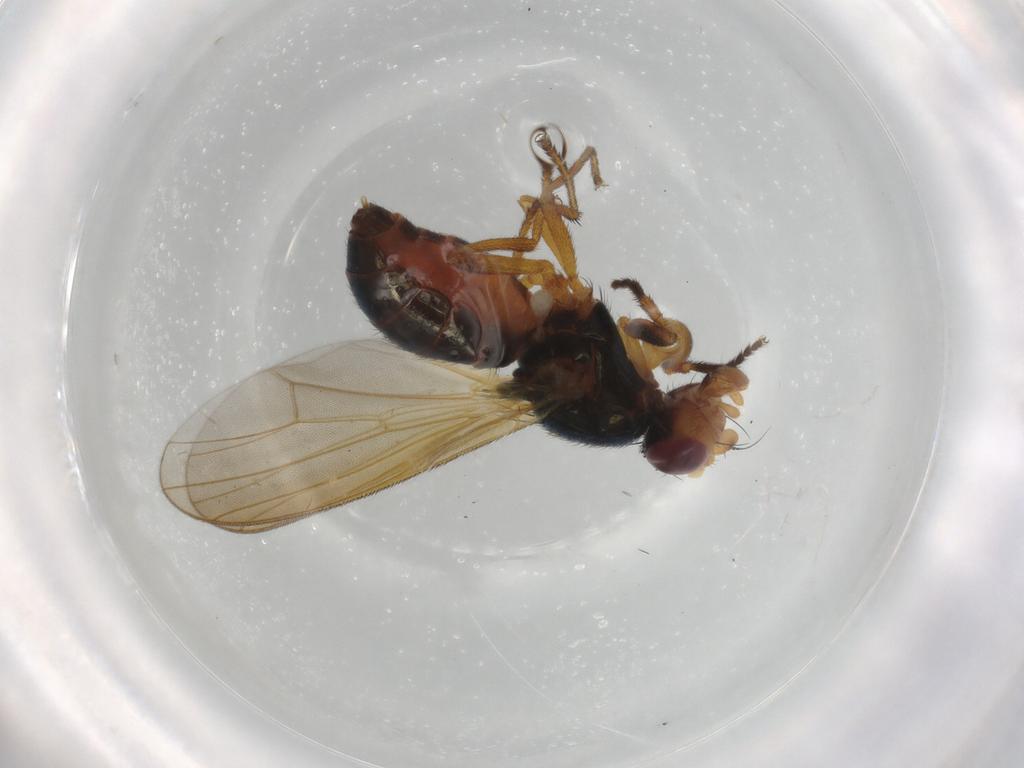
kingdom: Animalia
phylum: Arthropoda
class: Insecta
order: Diptera
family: Piophilidae
